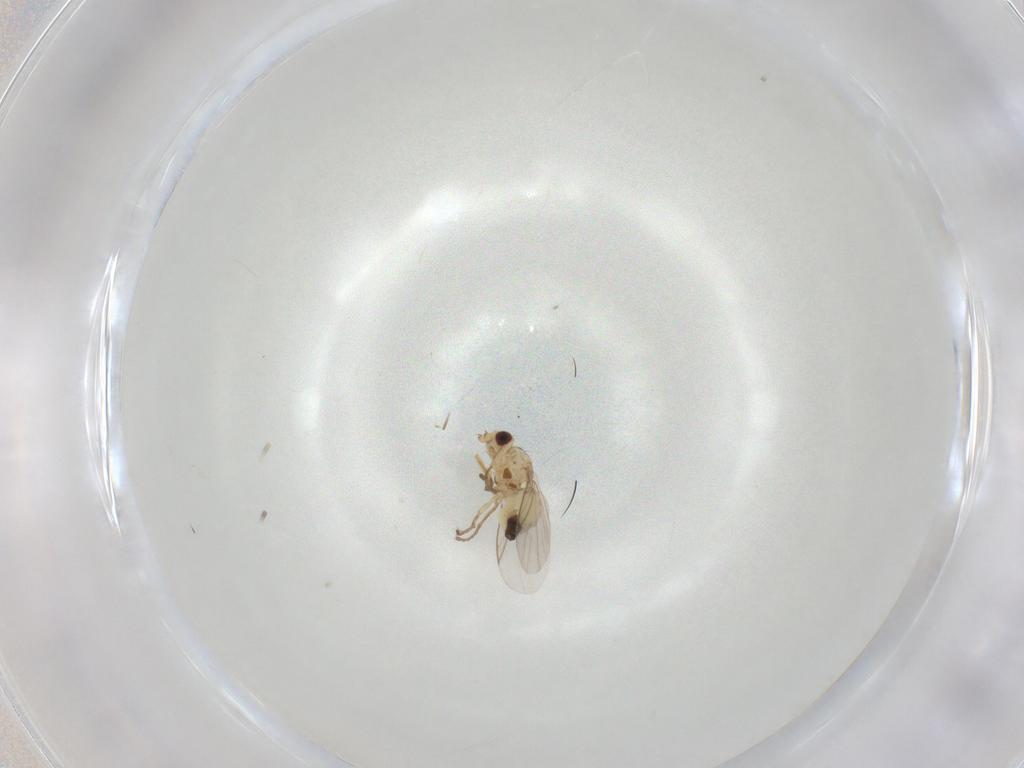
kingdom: Animalia
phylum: Arthropoda
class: Insecta
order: Diptera
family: Agromyzidae
